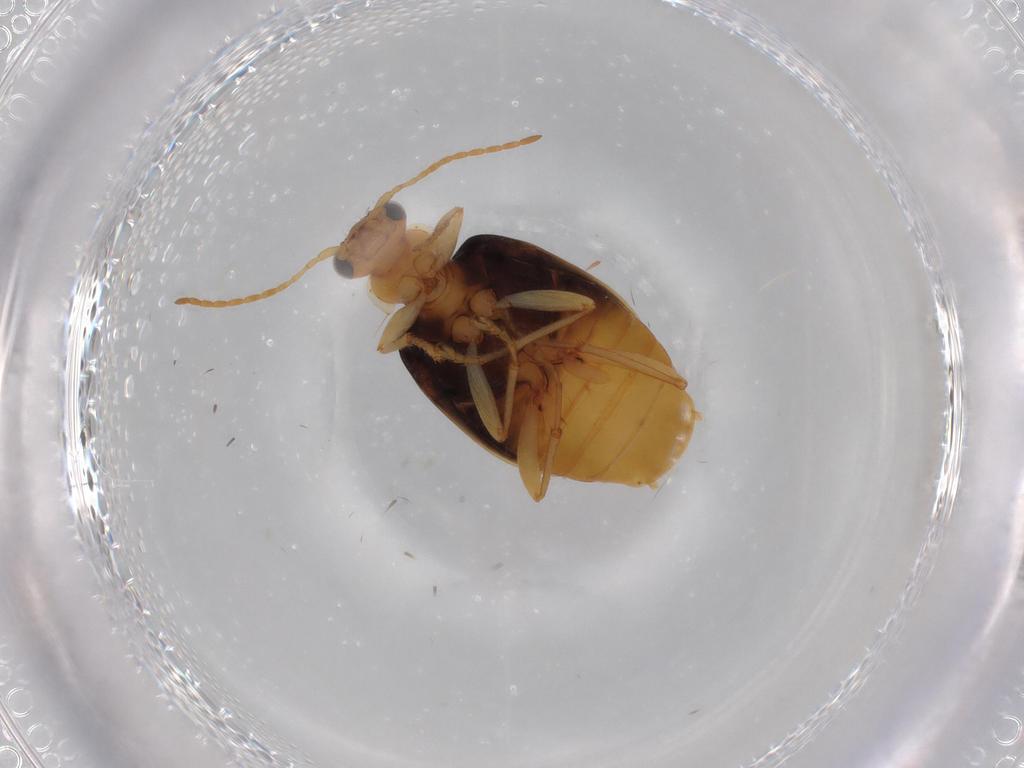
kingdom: Animalia
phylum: Arthropoda
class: Insecta
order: Coleoptera
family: Carabidae
